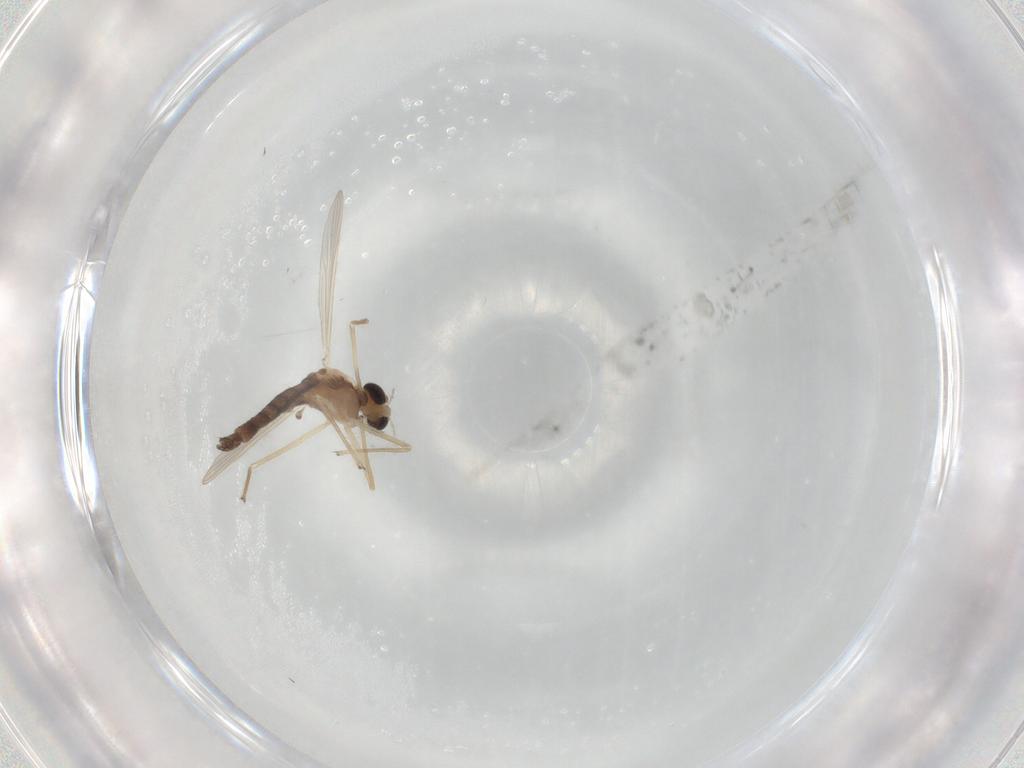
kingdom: Animalia
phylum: Arthropoda
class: Insecta
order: Diptera
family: Chironomidae
